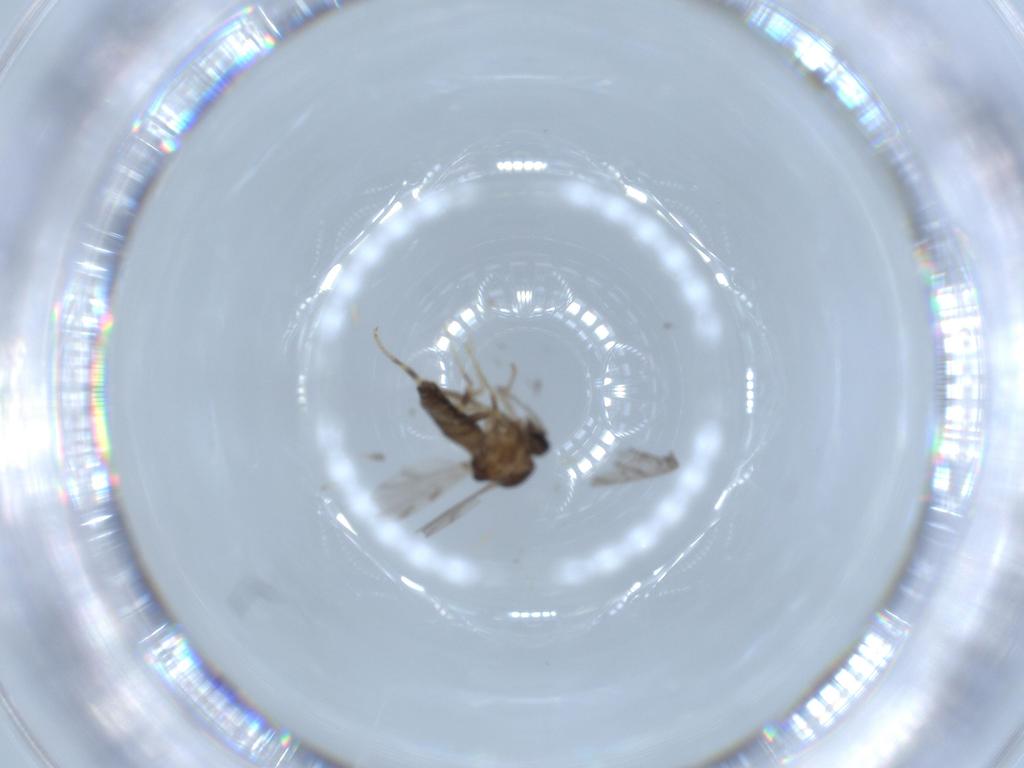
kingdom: Animalia
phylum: Arthropoda
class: Insecta
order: Diptera
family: Ceratopogonidae
